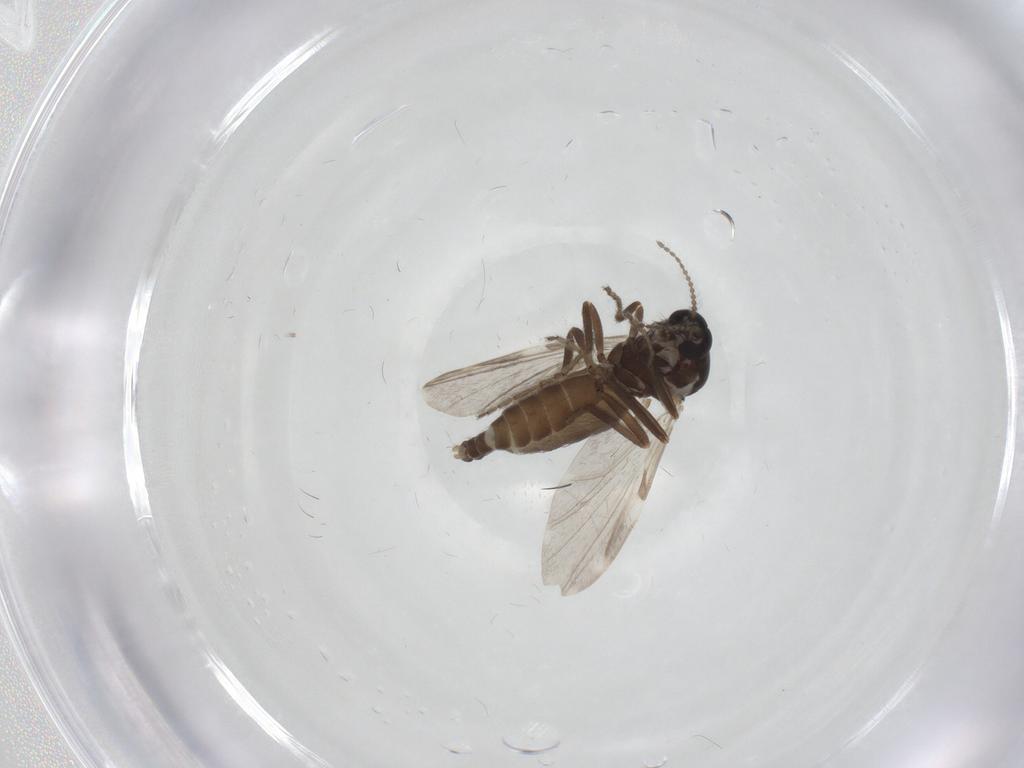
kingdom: Animalia
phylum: Arthropoda
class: Insecta
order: Diptera
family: Ceratopogonidae
